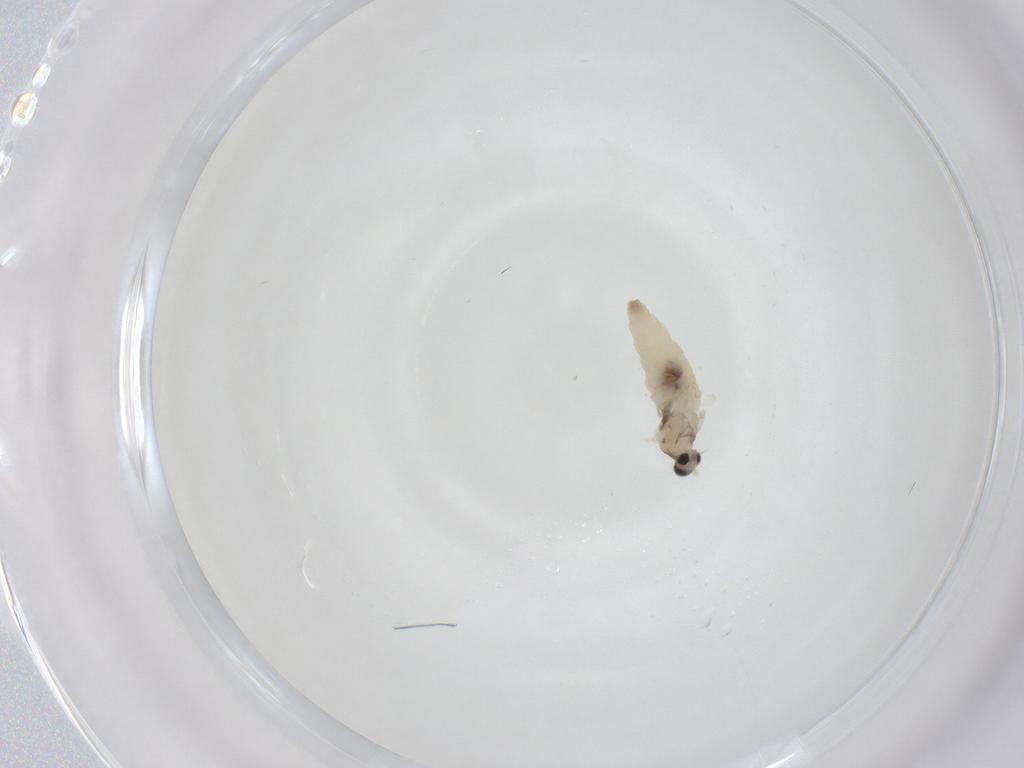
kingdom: Animalia
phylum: Arthropoda
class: Insecta
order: Diptera
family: Cecidomyiidae
